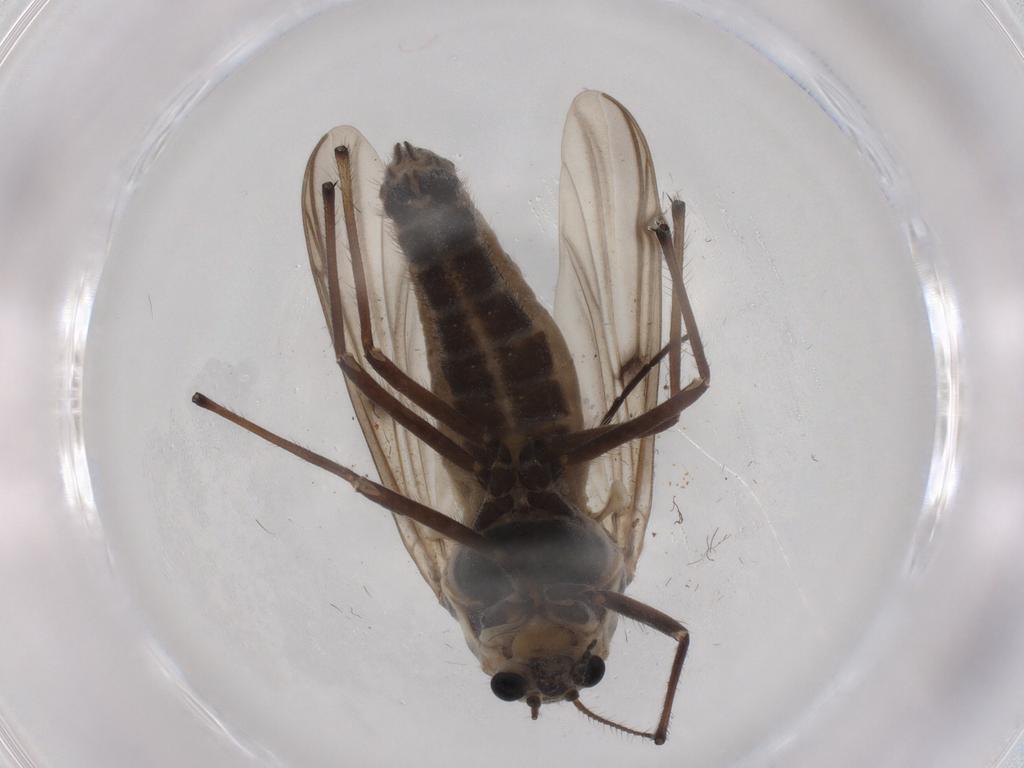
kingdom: Animalia
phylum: Arthropoda
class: Insecta
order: Diptera
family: Chironomidae
